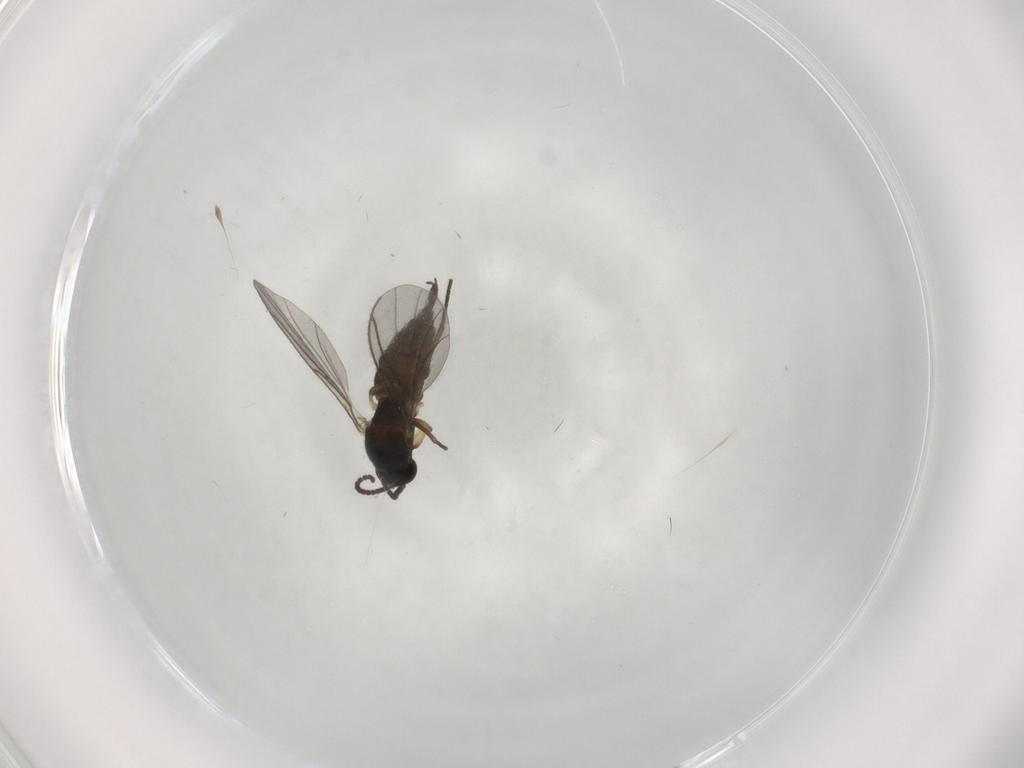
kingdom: Animalia
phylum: Arthropoda
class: Insecta
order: Diptera
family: Sciaridae
